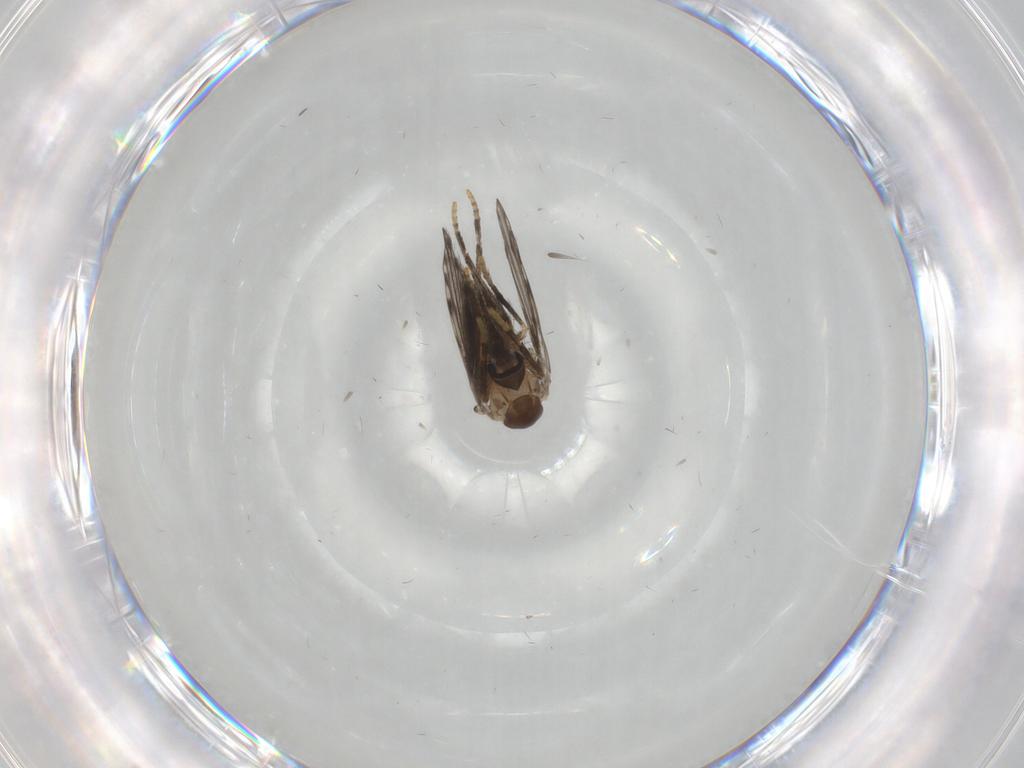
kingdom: Animalia
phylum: Arthropoda
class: Insecta
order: Diptera
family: Psychodidae
